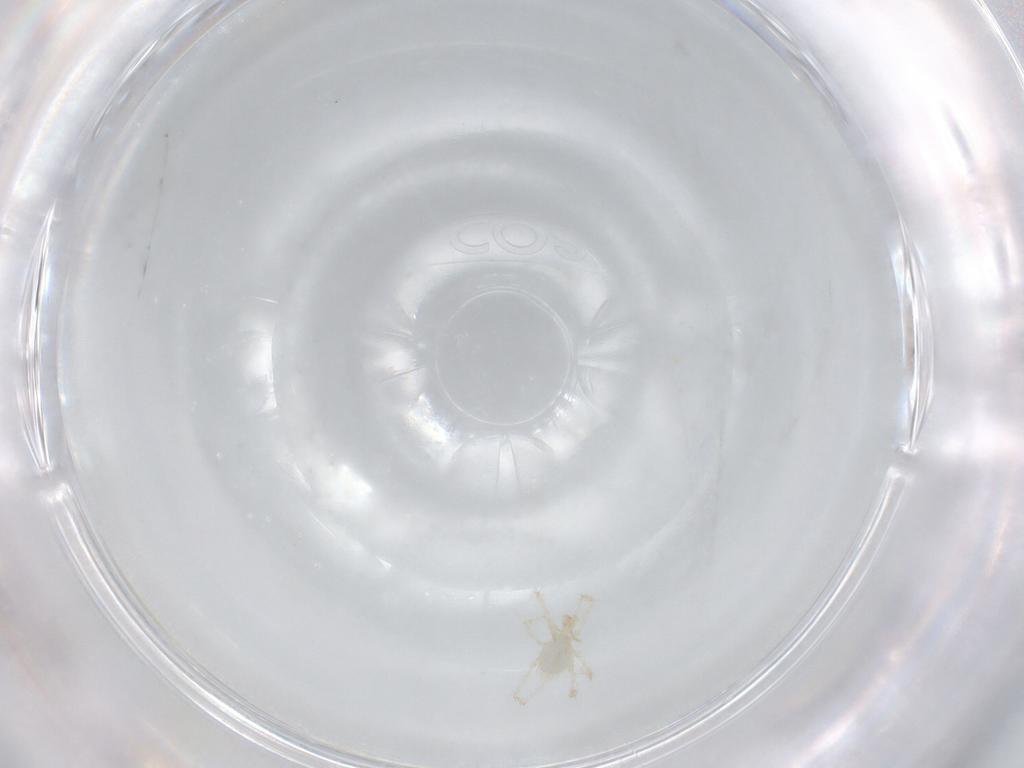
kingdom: Animalia
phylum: Arthropoda
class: Arachnida
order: Trombidiformes
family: Erythraeidae
